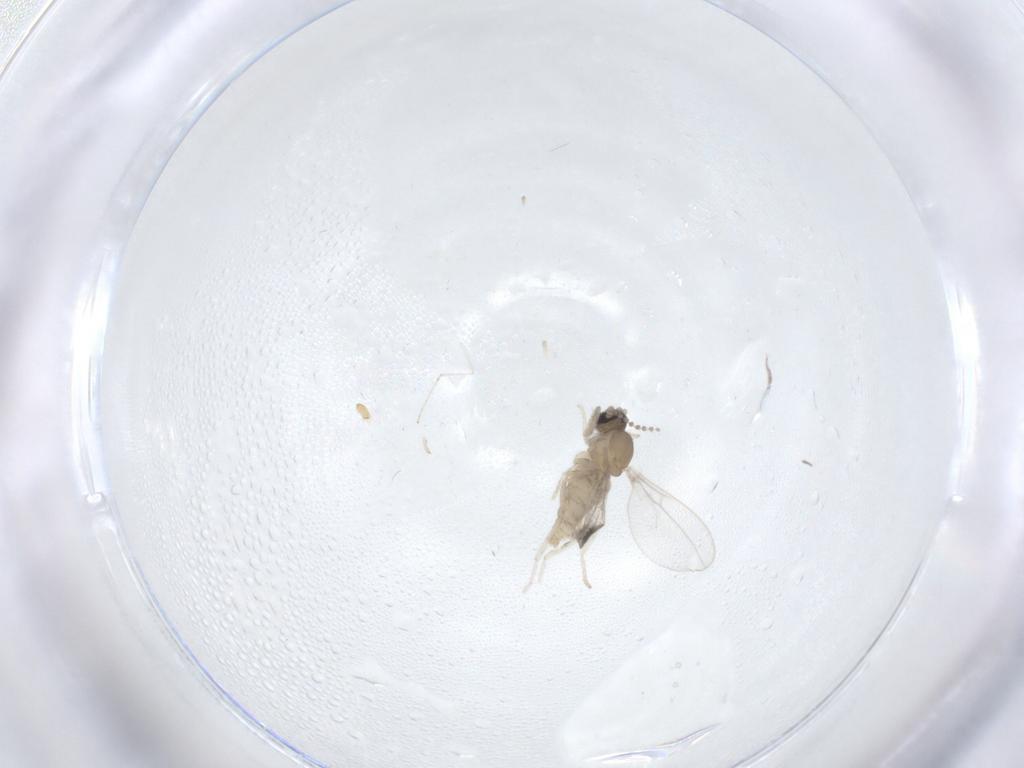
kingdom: Animalia
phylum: Arthropoda
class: Insecta
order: Diptera
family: Cecidomyiidae
